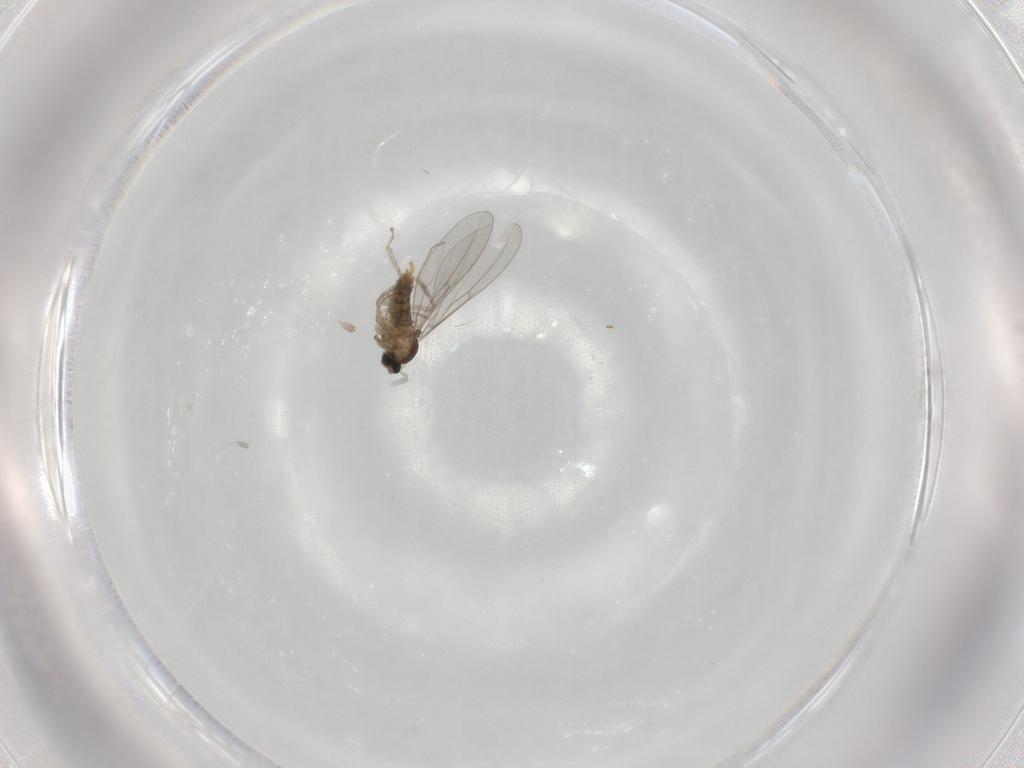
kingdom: Animalia
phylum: Arthropoda
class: Insecta
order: Diptera
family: Cecidomyiidae
